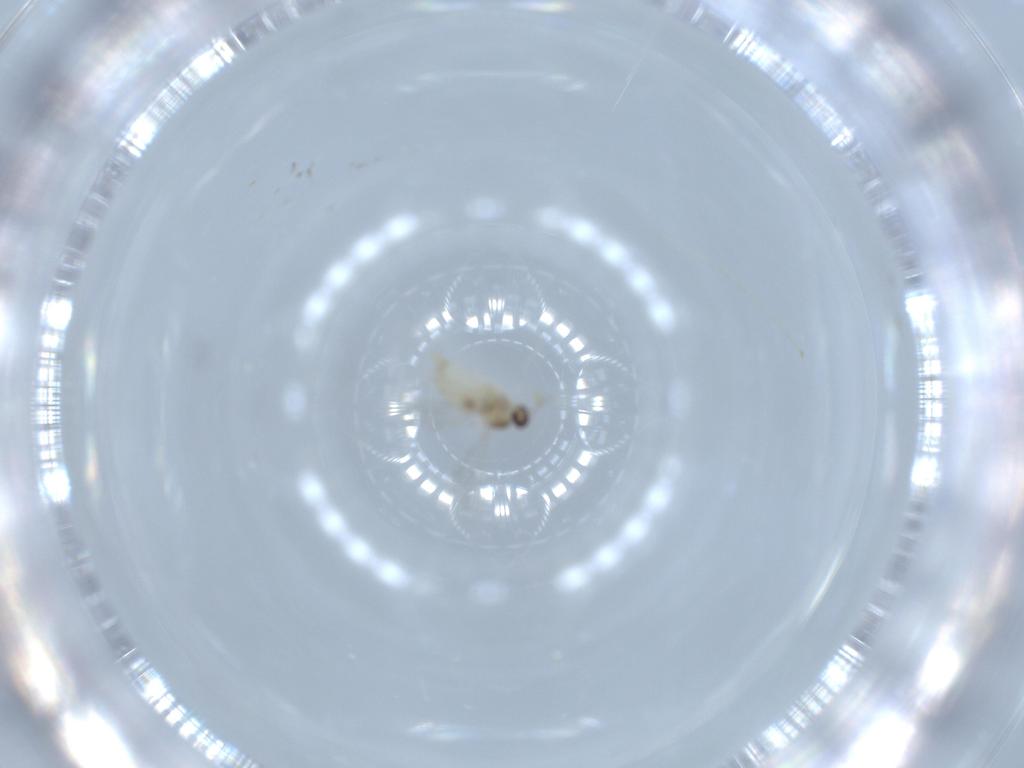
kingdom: Animalia
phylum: Arthropoda
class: Insecta
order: Diptera
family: Cecidomyiidae
